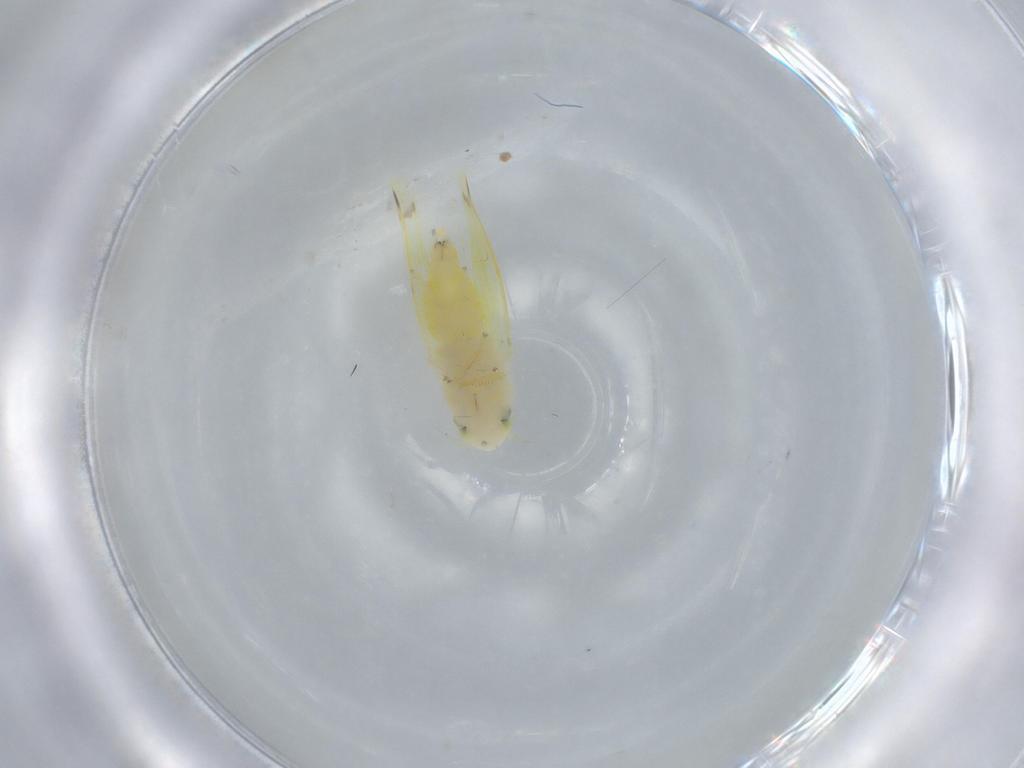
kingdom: Animalia
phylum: Arthropoda
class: Insecta
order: Hemiptera
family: Cicadellidae
